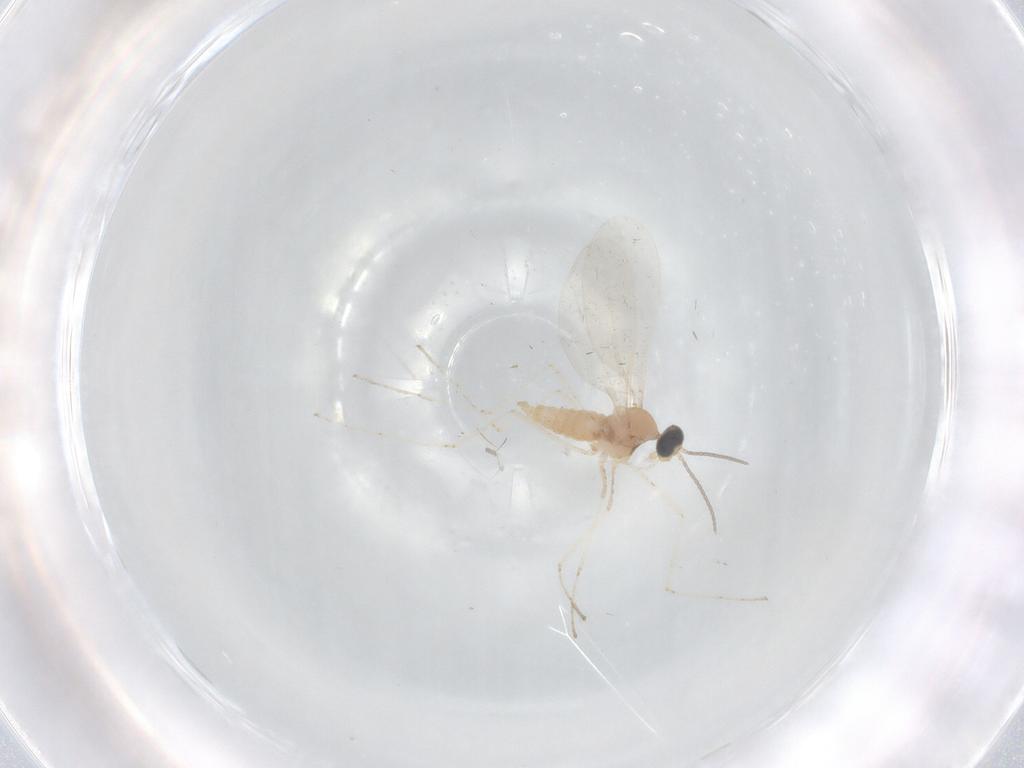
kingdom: Animalia
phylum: Arthropoda
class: Insecta
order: Diptera
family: Cecidomyiidae
